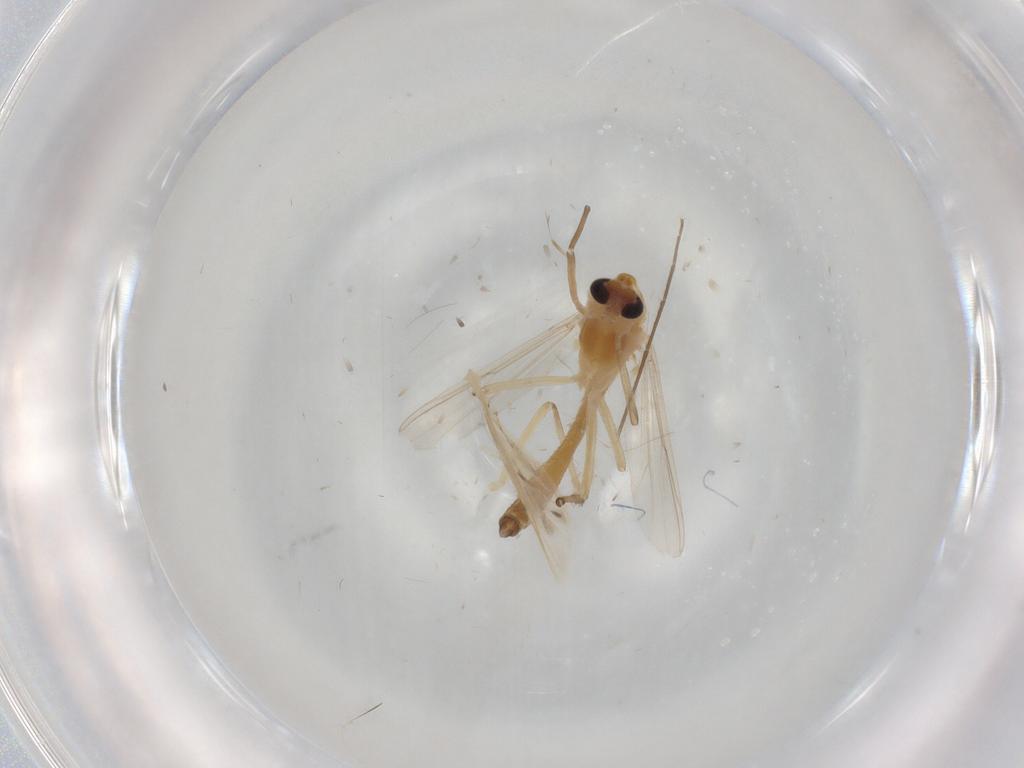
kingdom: Animalia
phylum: Arthropoda
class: Insecta
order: Diptera
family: Chironomidae
